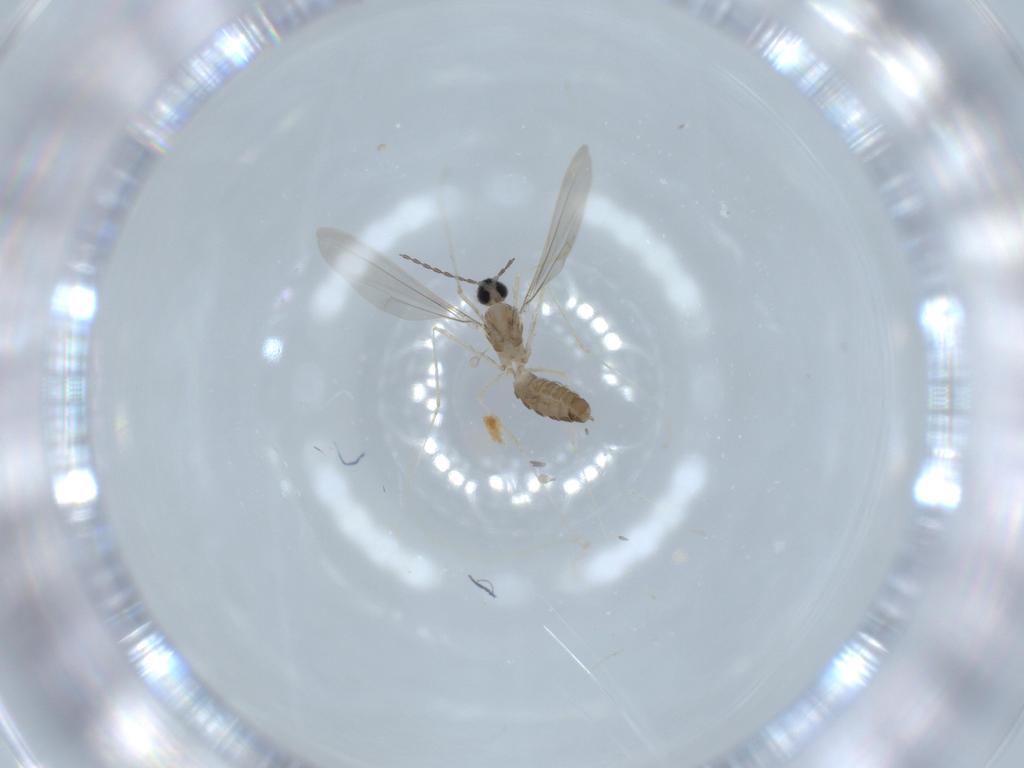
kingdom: Animalia
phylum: Arthropoda
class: Insecta
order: Diptera
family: Cecidomyiidae
